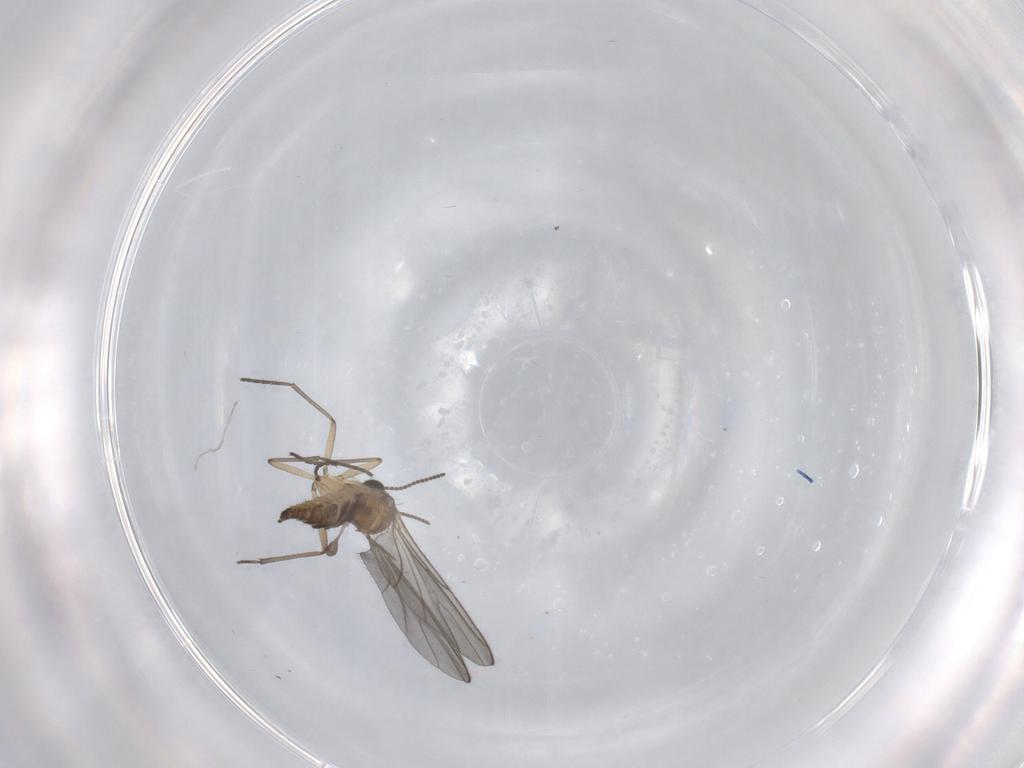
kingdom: Animalia
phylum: Arthropoda
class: Insecta
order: Diptera
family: Sciaridae
